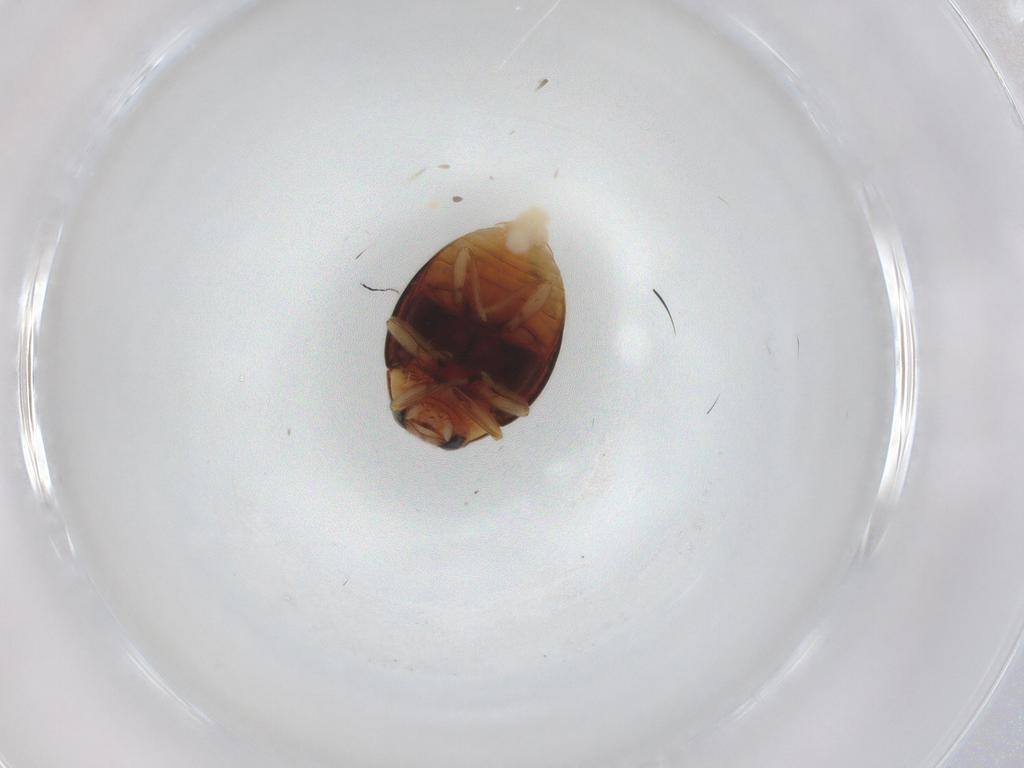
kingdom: Animalia
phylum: Arthropoda
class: Insecta
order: Coleoptera
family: Coccinellidae
